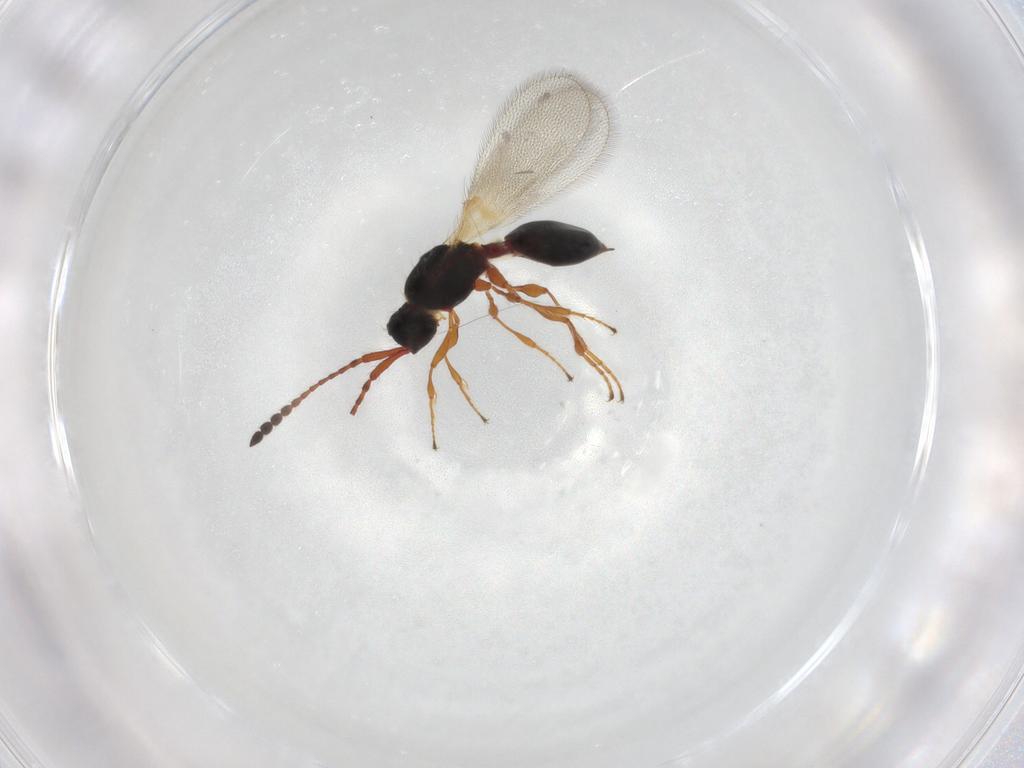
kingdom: Animalia
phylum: Arthropoda
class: Insecta
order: Hymenoptera
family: Diapriidae
